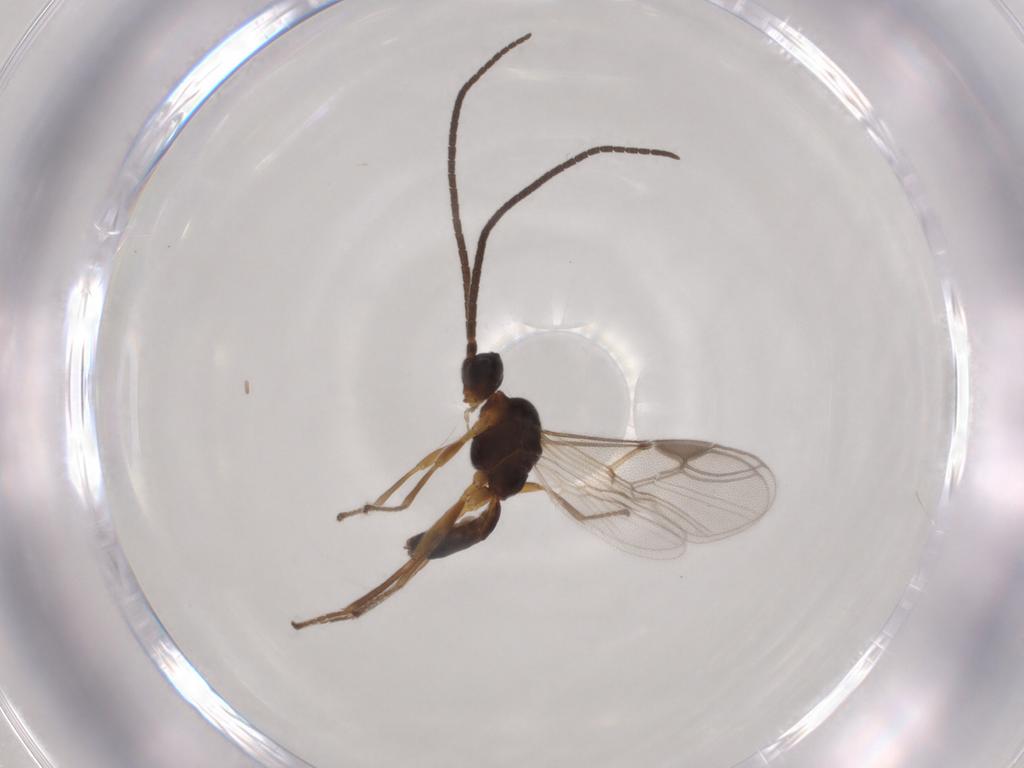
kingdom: Animalia
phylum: Arthropoda
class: Insecta
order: Hymenoptera
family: Braconidae
